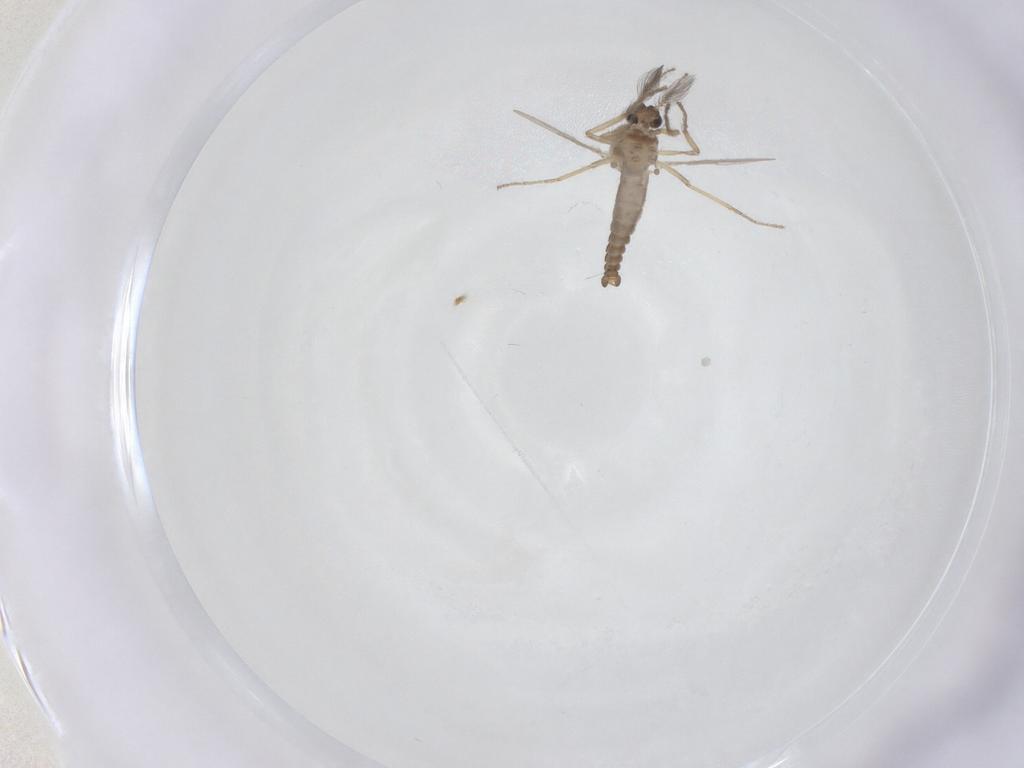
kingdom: Animalia
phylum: Arthropoda
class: Insecta
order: Diptera
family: Ceratopogonidae
